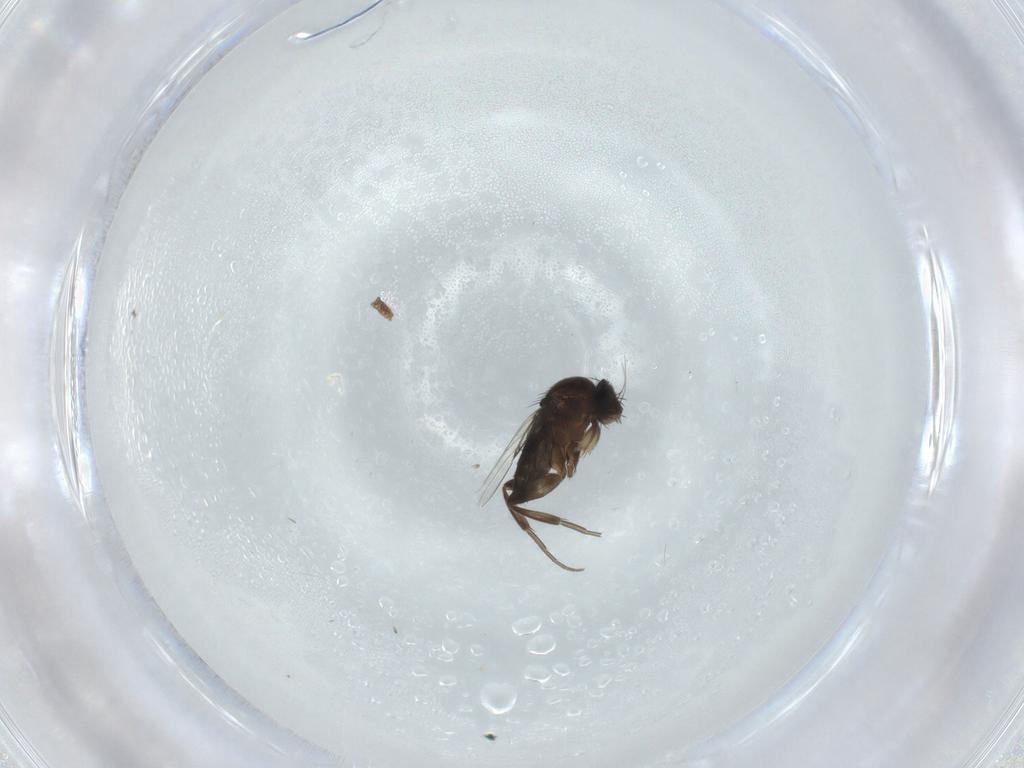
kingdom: Animalia
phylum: Arthropoda
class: Insecta
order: Diptera
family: Phoridae
